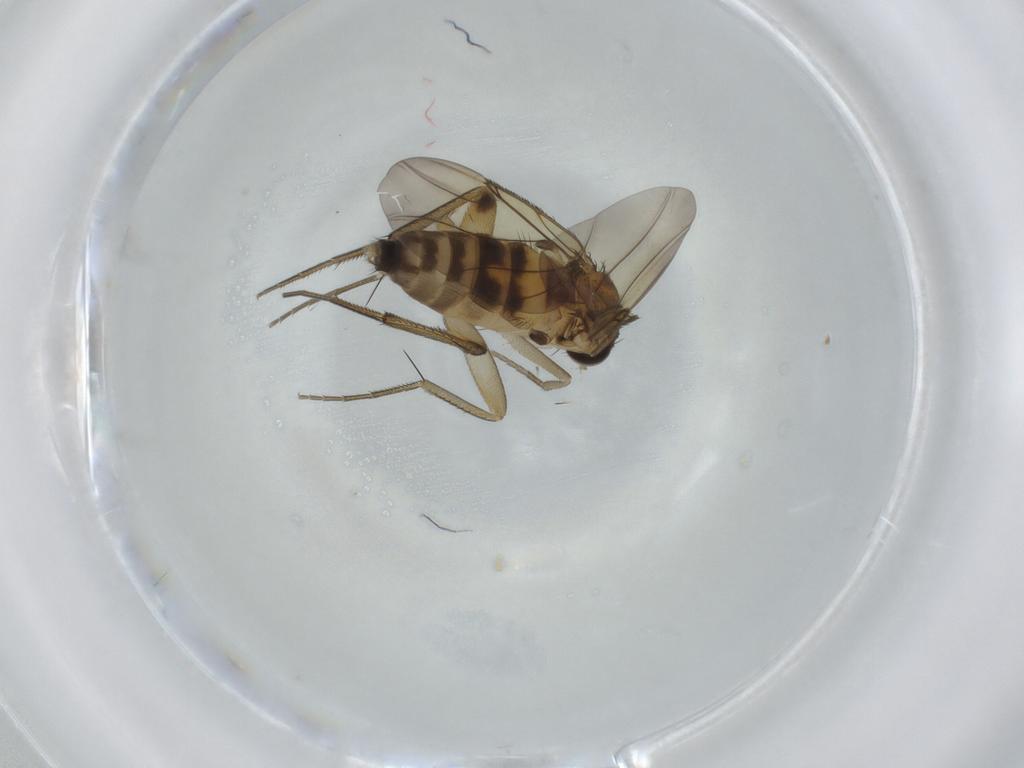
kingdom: Animalia
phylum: Arthropoda
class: Insecta
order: Diptera
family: Phoridae
